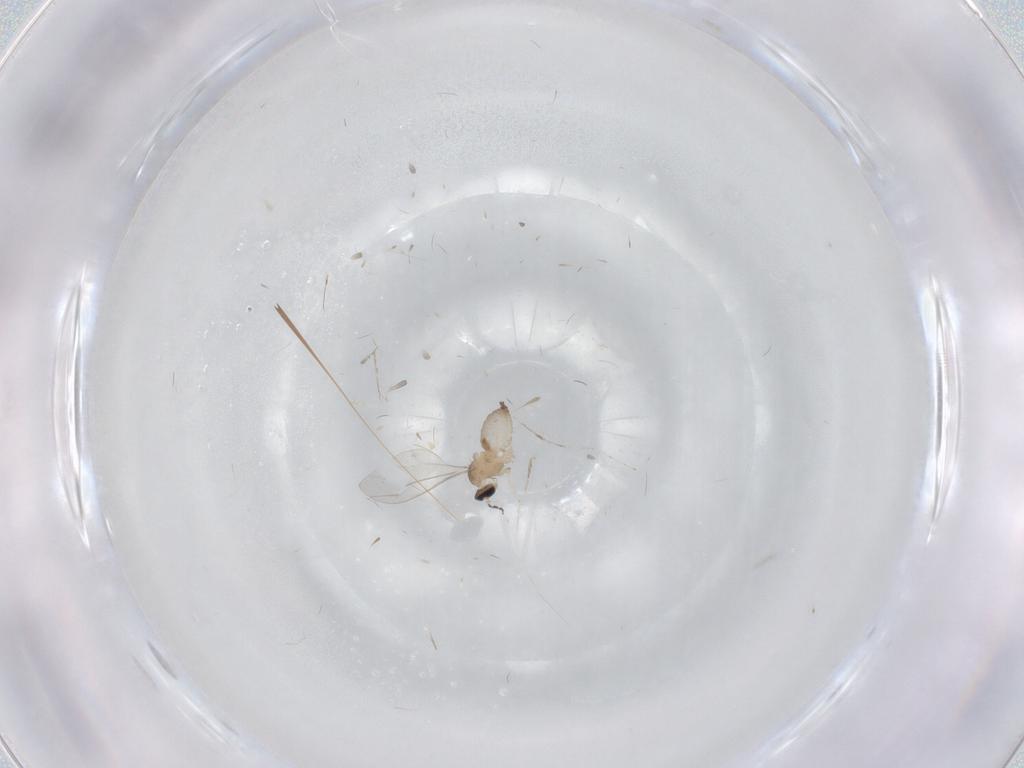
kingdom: Animalia
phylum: Arthropoda
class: Insecta
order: Diptera
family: Cecidomyiidae
